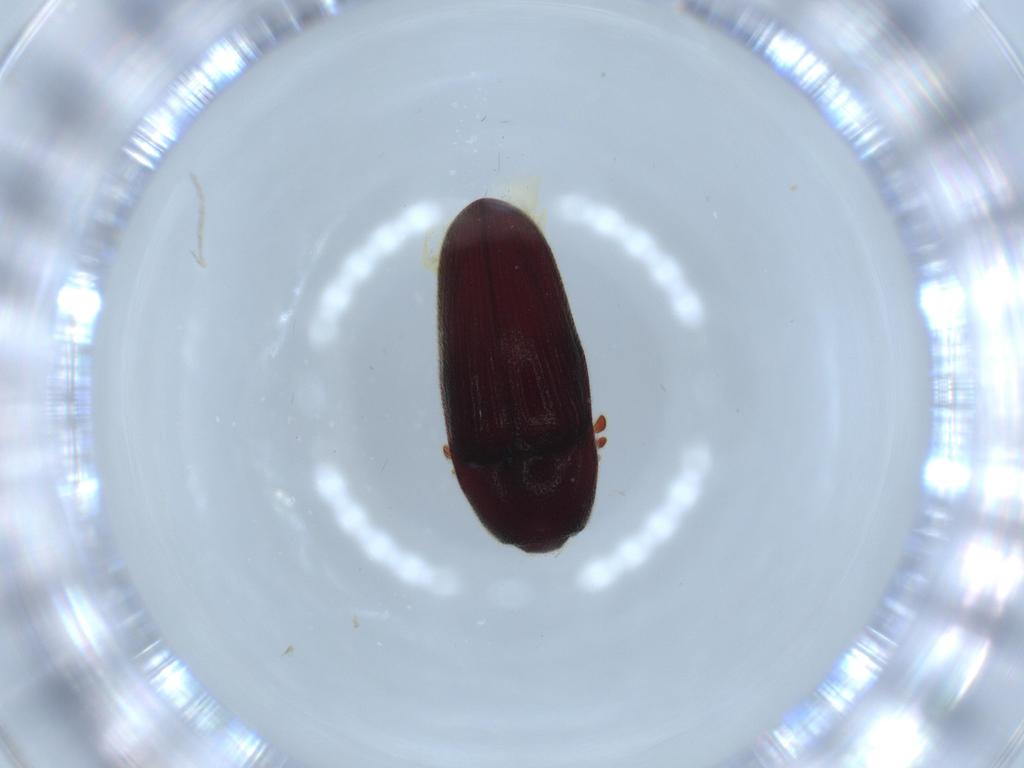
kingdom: Animalia
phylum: Arthropoda
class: Insecta
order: Coleoptera
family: Throscidae
